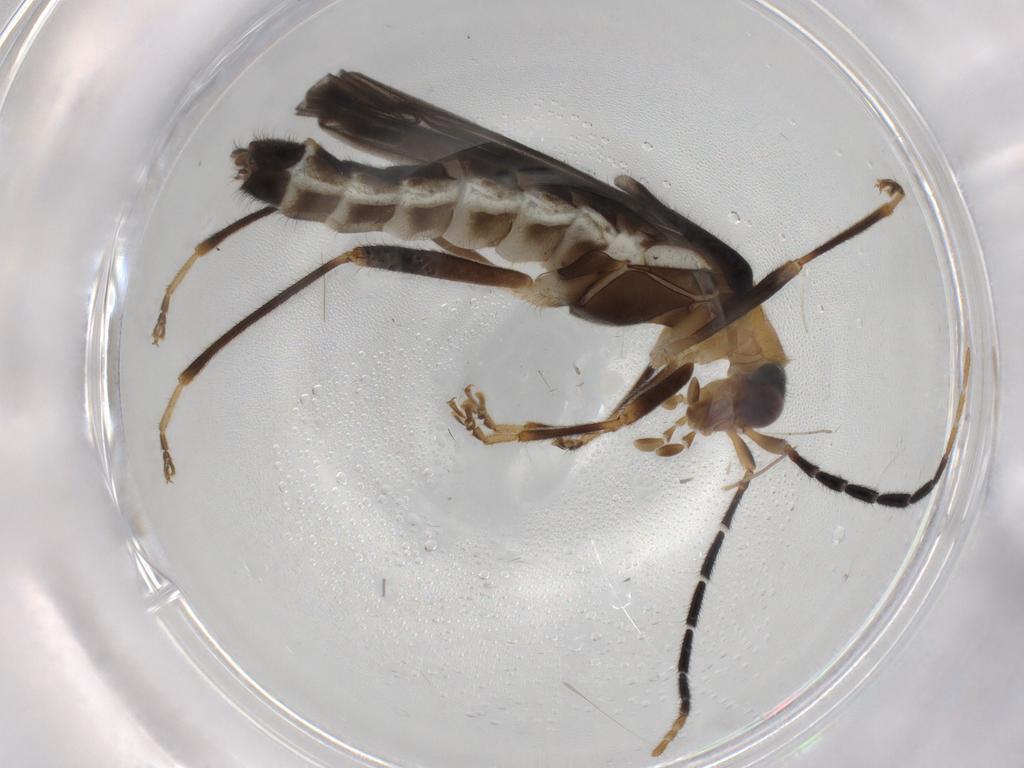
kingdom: Animalia
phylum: Arthropoda
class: Insecta
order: Coleoptera
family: Cantharidae
